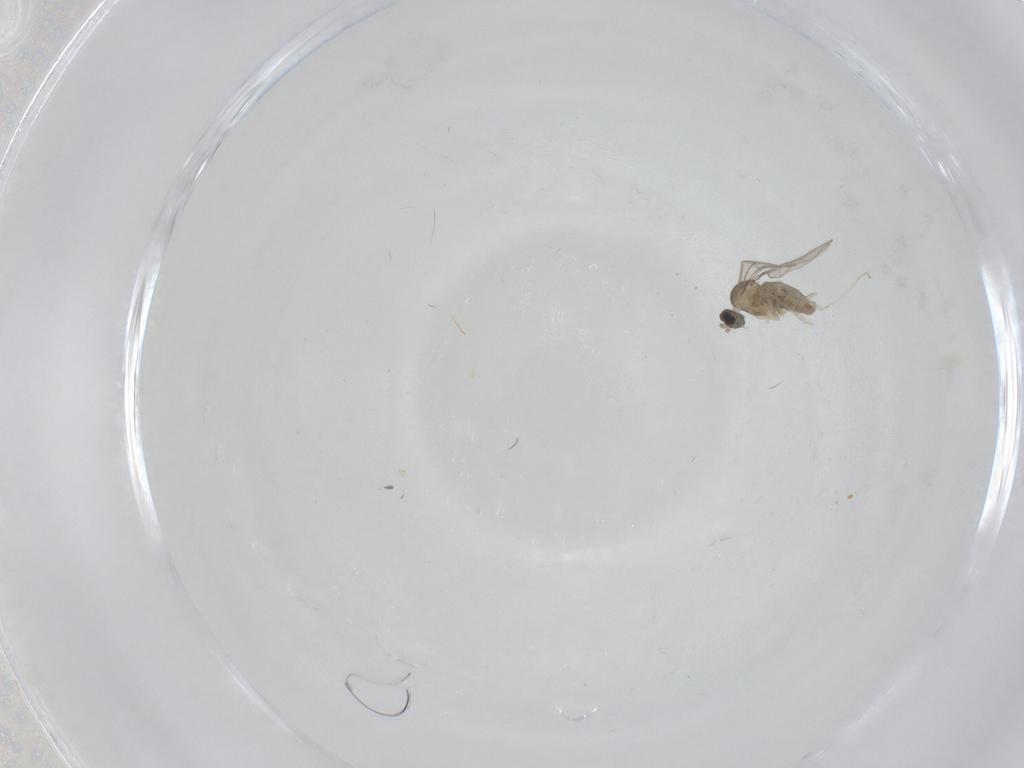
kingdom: Animalia
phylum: Arthropoda
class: Insecta
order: Diptera
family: Cecidomyiidae
